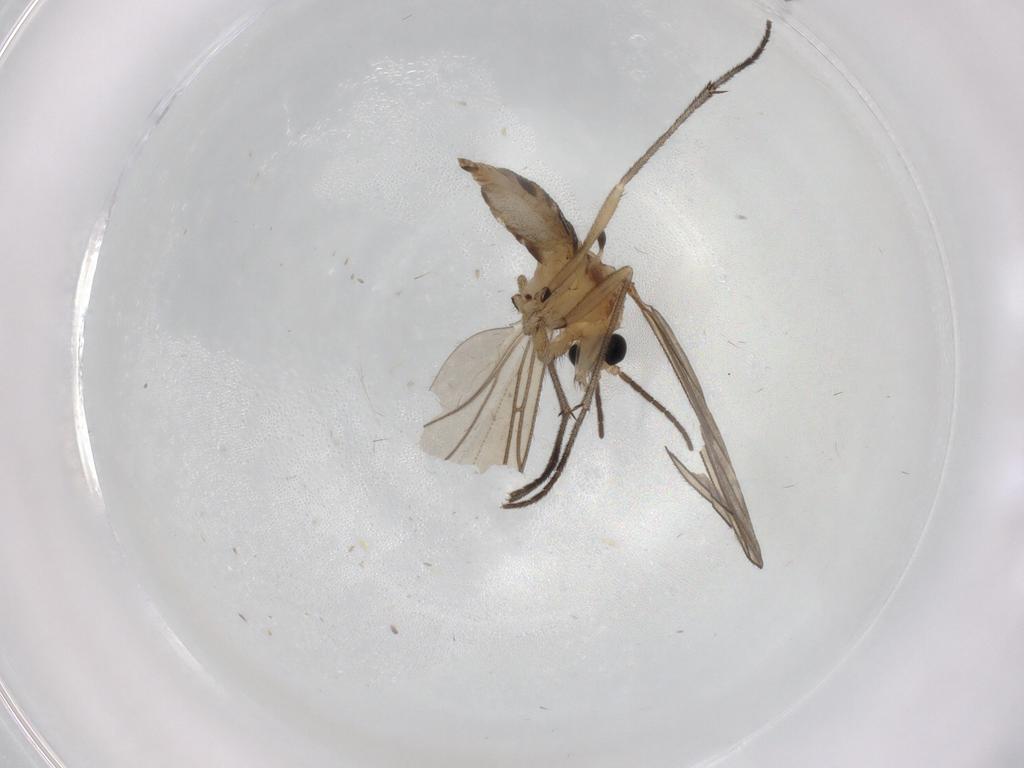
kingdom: Animalia
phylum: Arthropoda
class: Insecta
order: Diptera
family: Sciaridae
